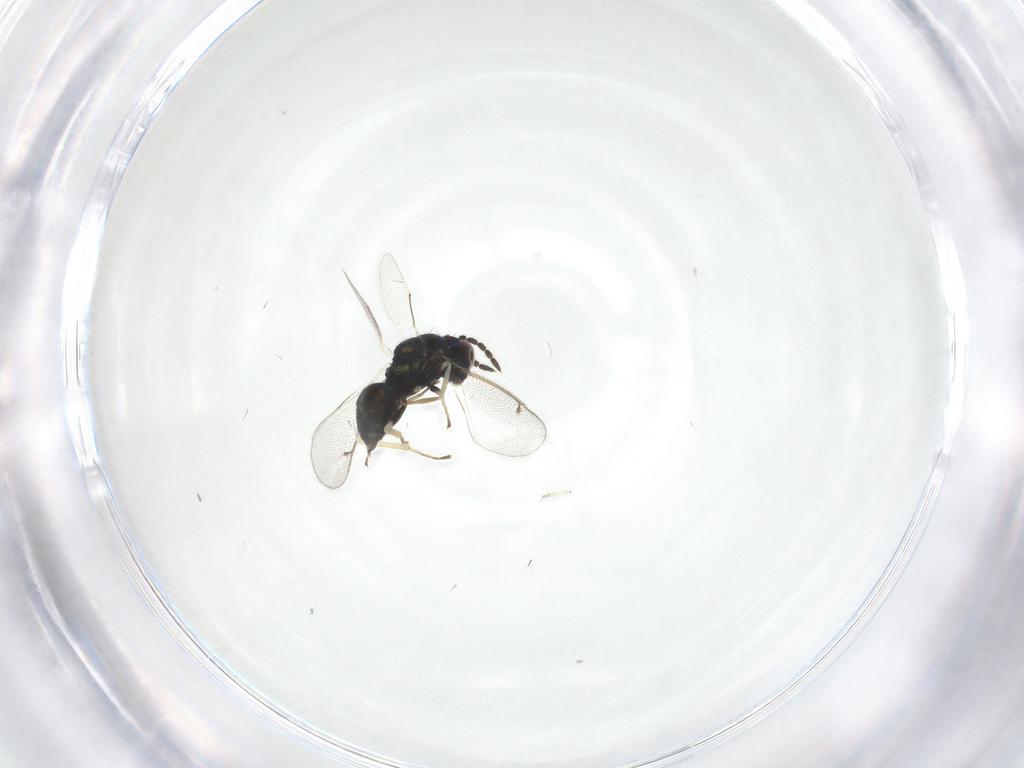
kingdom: Animalia
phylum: Arthropoda
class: Insecta
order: Hymenoptera
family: Eulophidae
